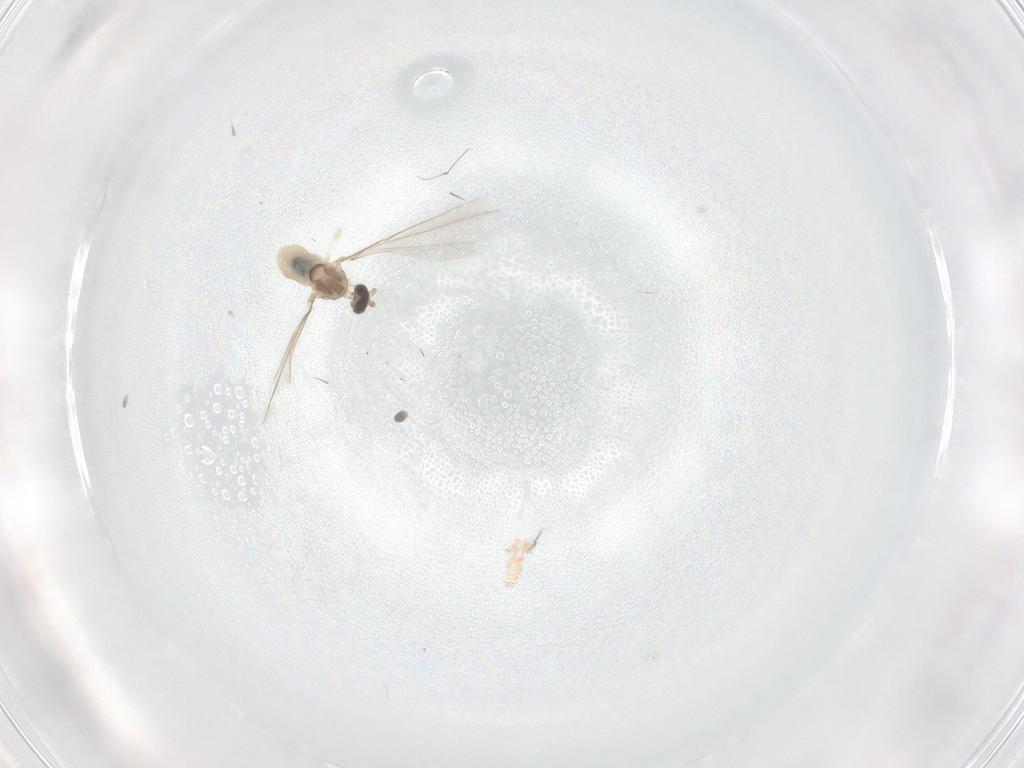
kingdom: Animalia
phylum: Arthropoda
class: Insecta
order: Diptera
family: Cecidomyiidae
